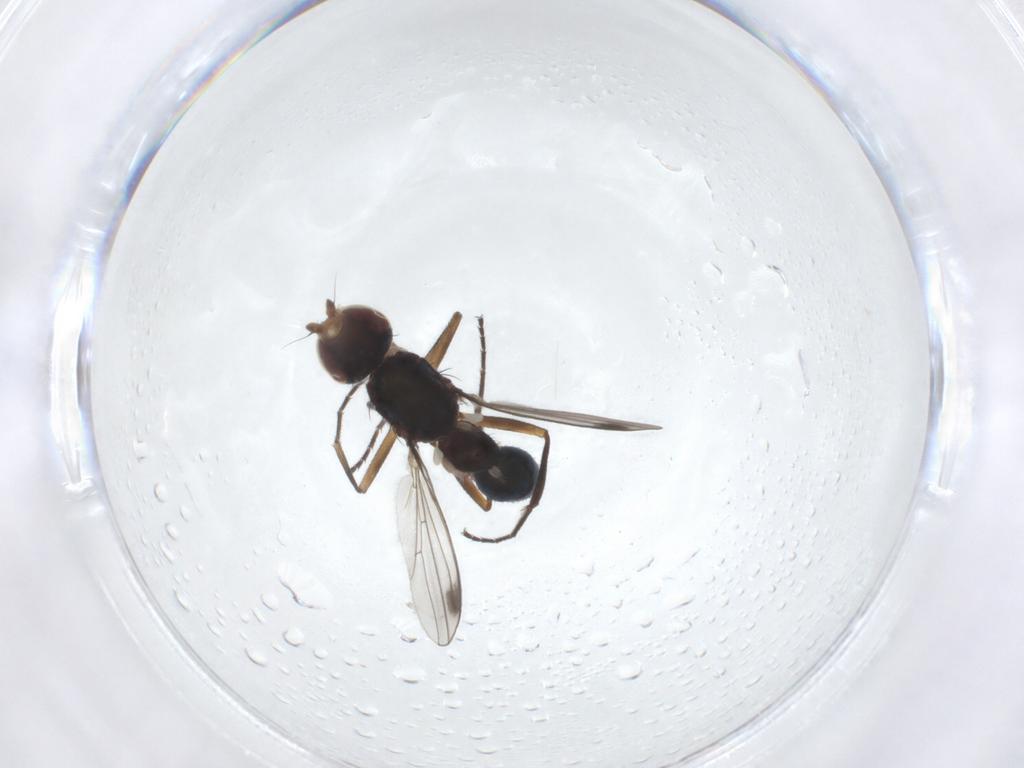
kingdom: Animalia
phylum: Arthropoda
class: Insecta
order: Diptera
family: Sepsidae
